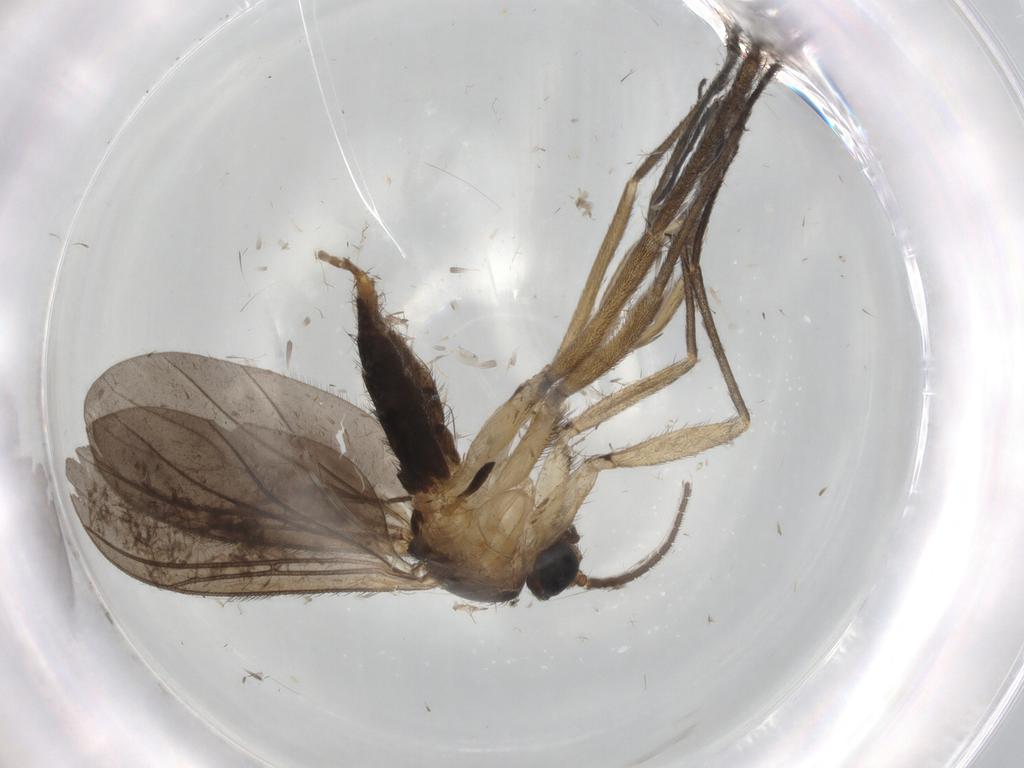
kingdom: Animalia
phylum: Arthropoda
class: Insecta
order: Diptera
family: Sciaridae
